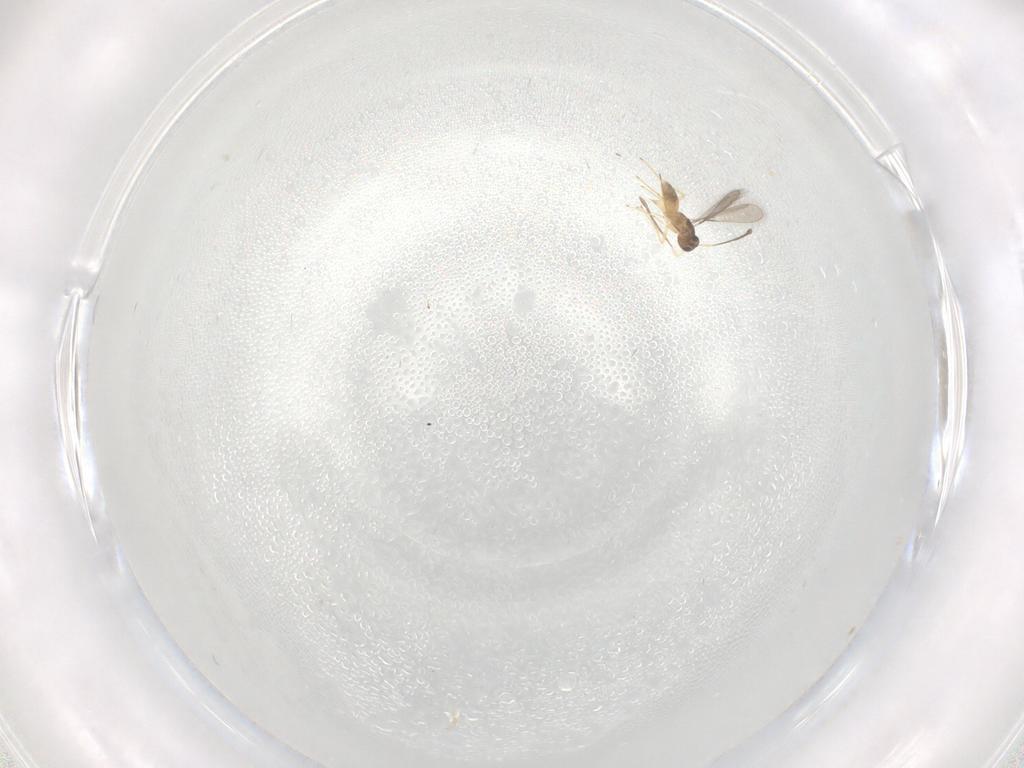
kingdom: Animalia
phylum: Arthropoda
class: Insecta
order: Hymenoptera
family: Mymaridae
